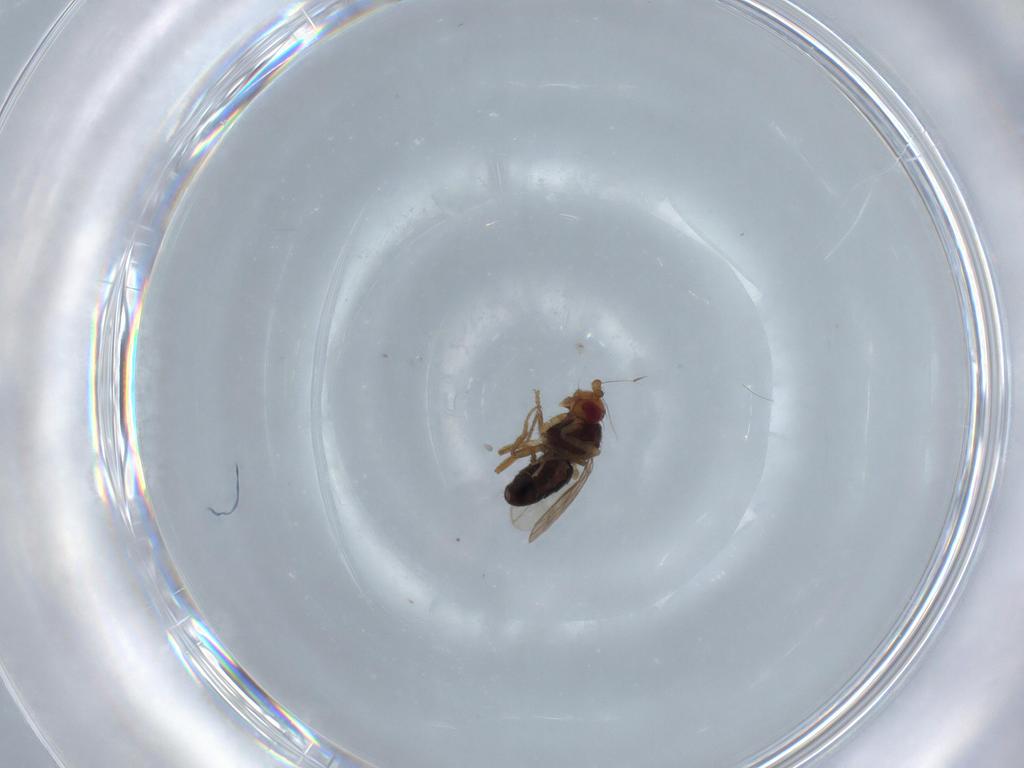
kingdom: Animalia
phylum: Arthropoda
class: Insecta
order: Diptera
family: Sphaeroceridae
